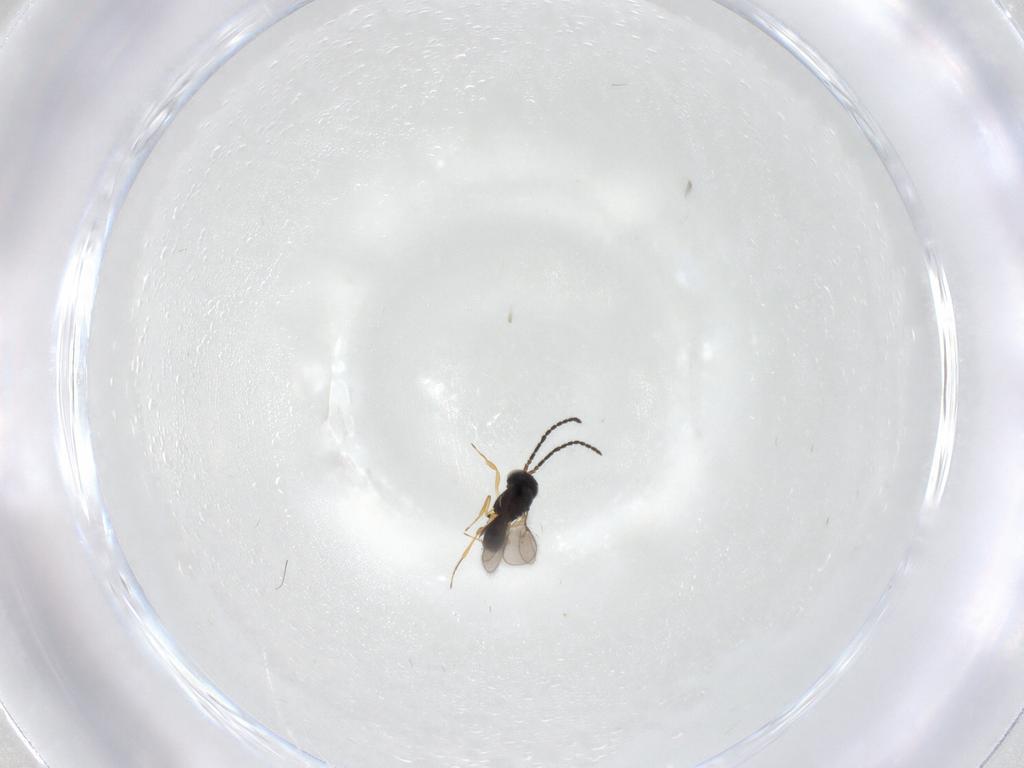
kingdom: Animalia
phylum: Arthropoda
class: Insecta
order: Hymenoptera
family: Scelionidae
